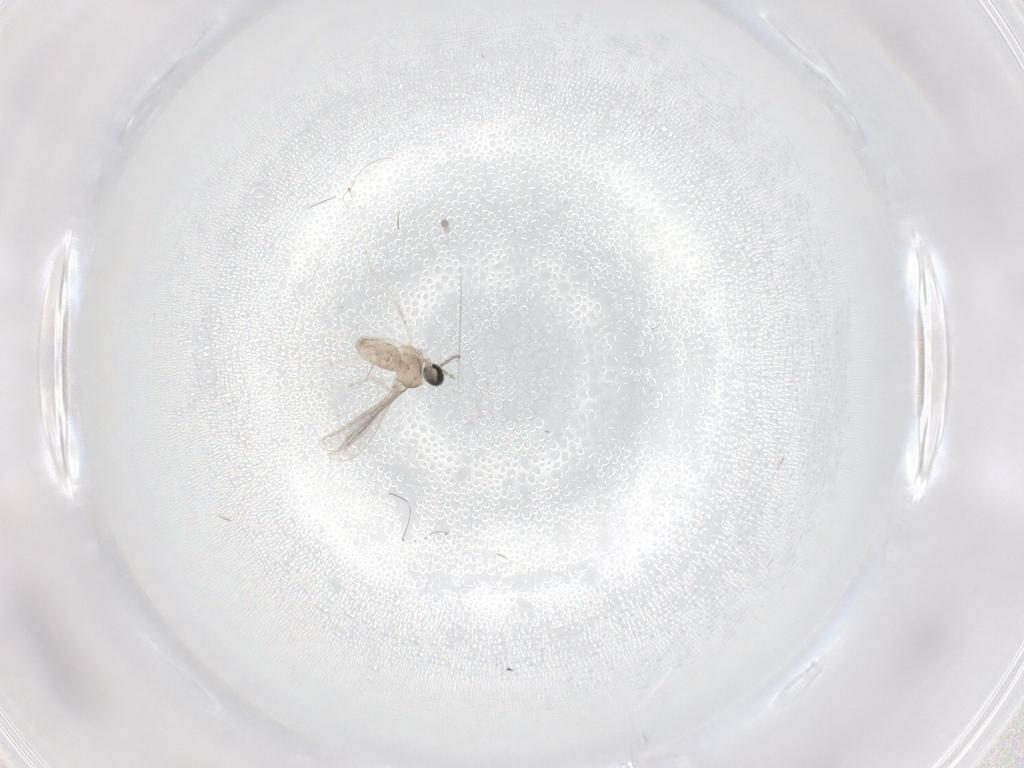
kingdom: Animalia
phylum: Arthropoda
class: Insecta
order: Diptera
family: Cecidomyiidae
